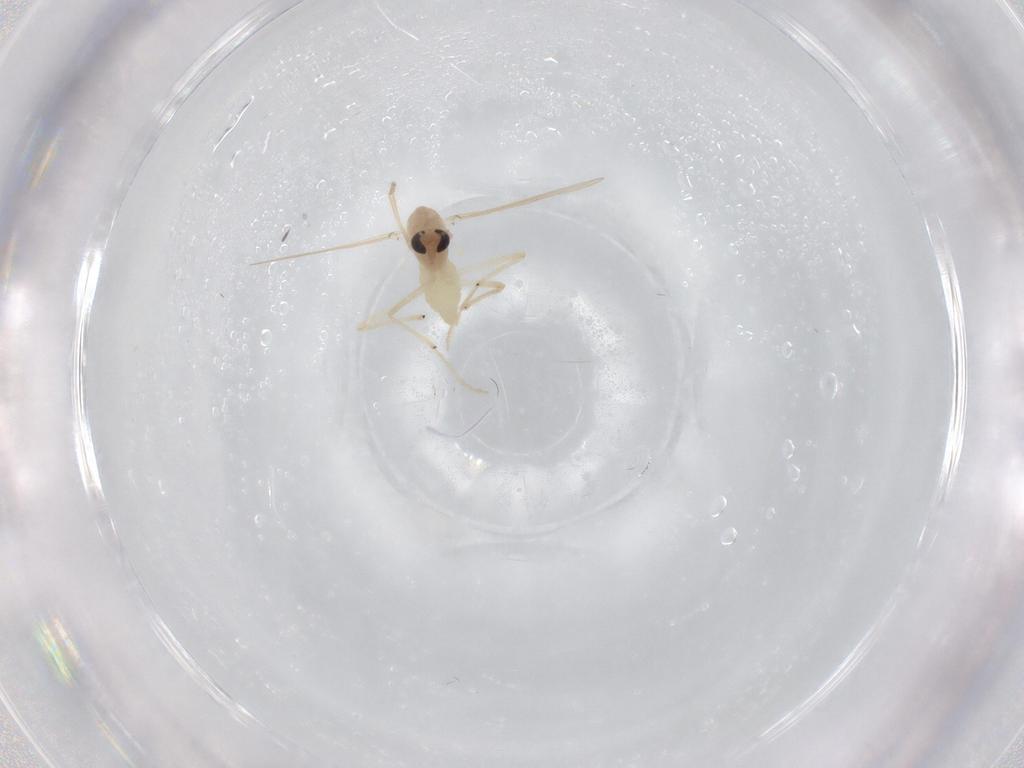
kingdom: Animalia
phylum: Arthropoda
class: Insecta
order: Diptera
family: Chironomidae
